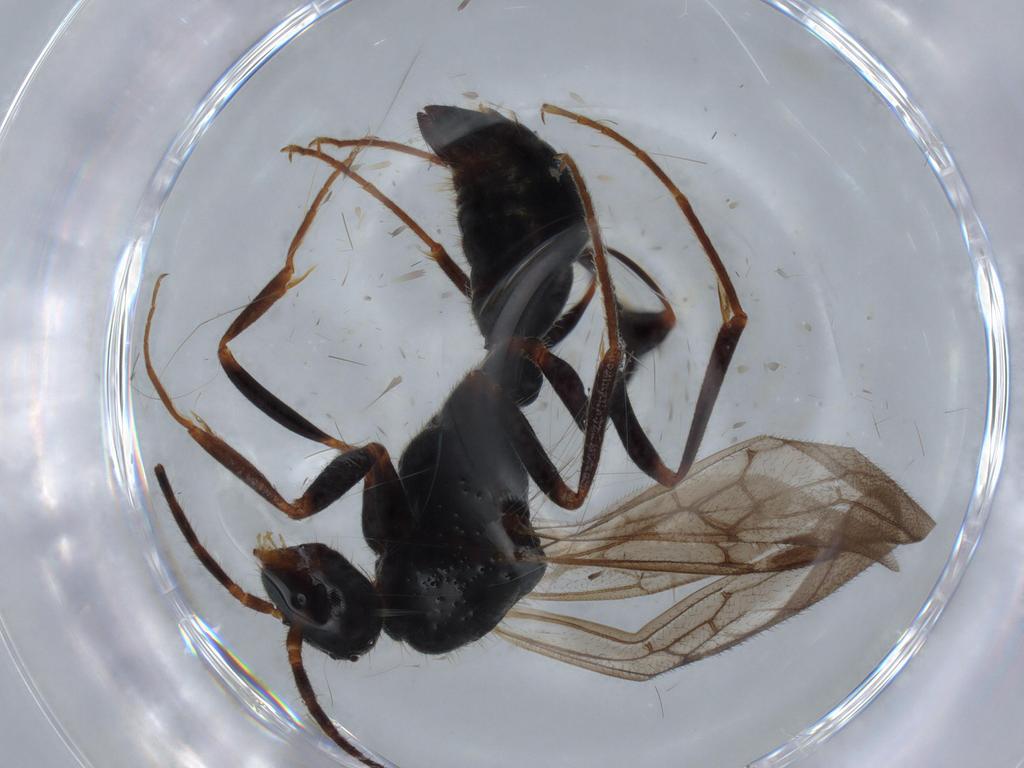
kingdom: Animalia
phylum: Arthropoda
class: Insecta
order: Hymenoptera
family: Formicidae
